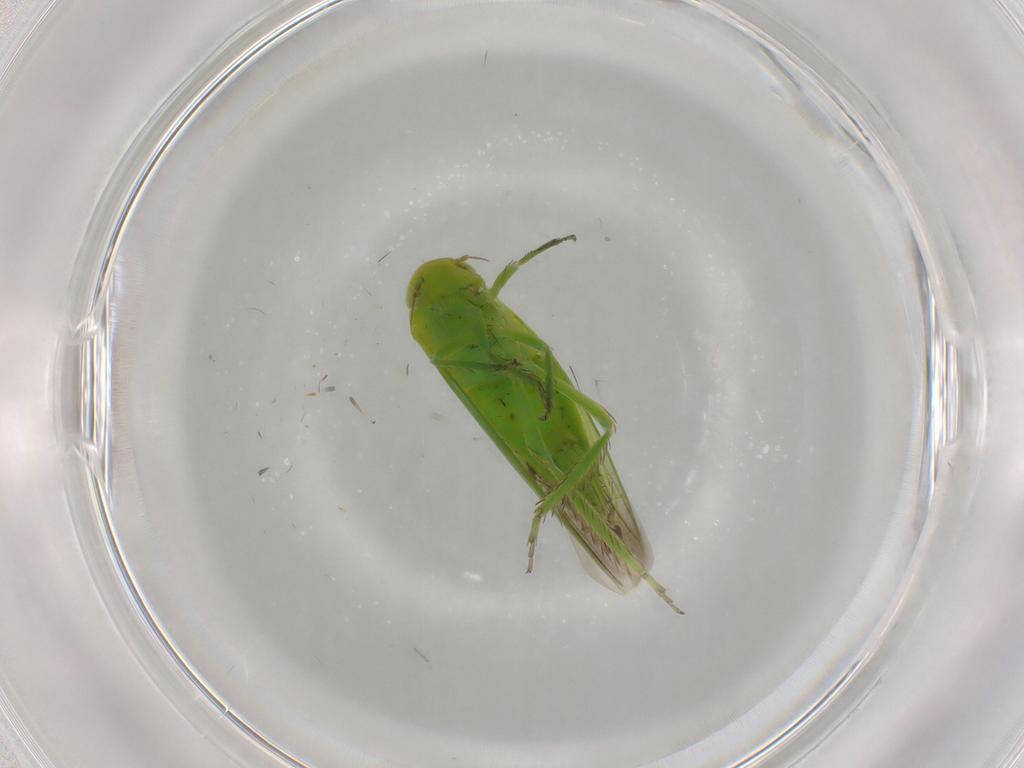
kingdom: Animalia
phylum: Arthropoda
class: Insecta
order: Hemiptera
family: Cicadellidae
